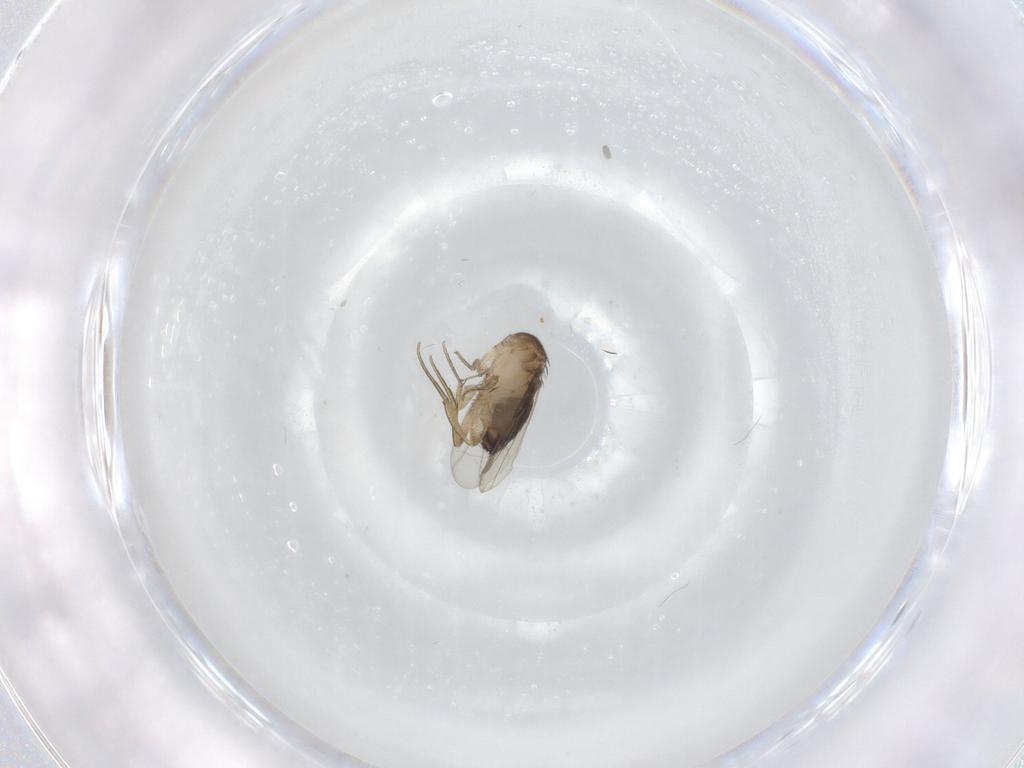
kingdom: Animalia
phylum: Arthropoda
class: Insecta
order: Diptera
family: Cecidomyiidae
